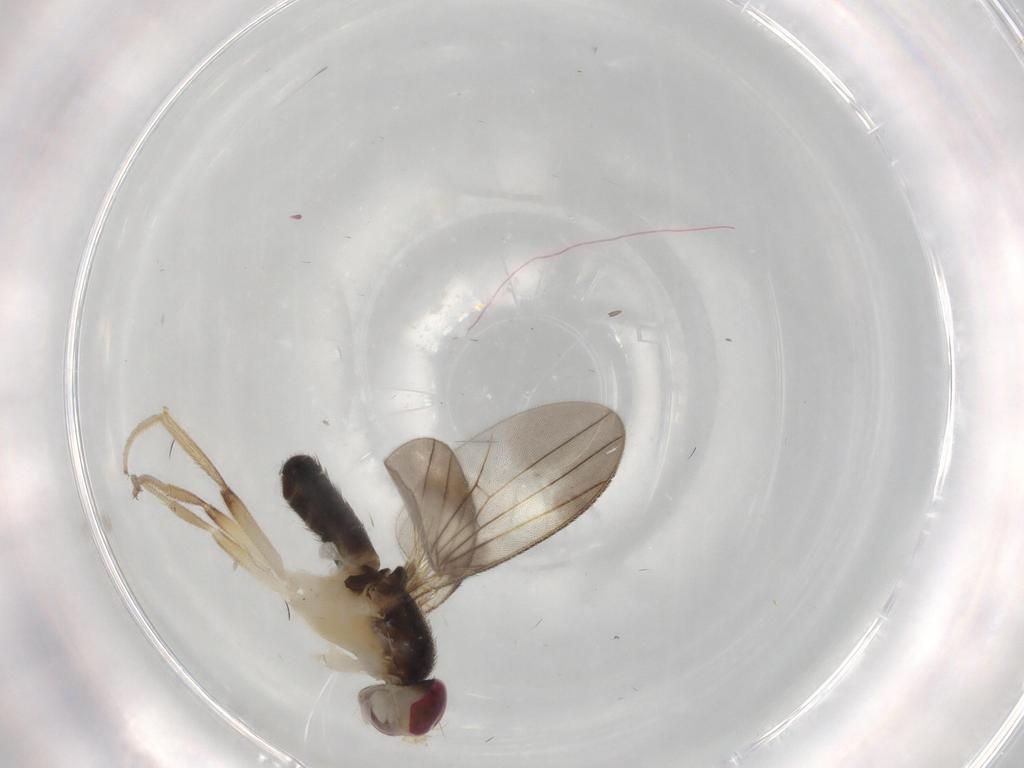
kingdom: Animalia
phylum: Arthropoda
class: Insecta
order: Diptera
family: Clusiidae
